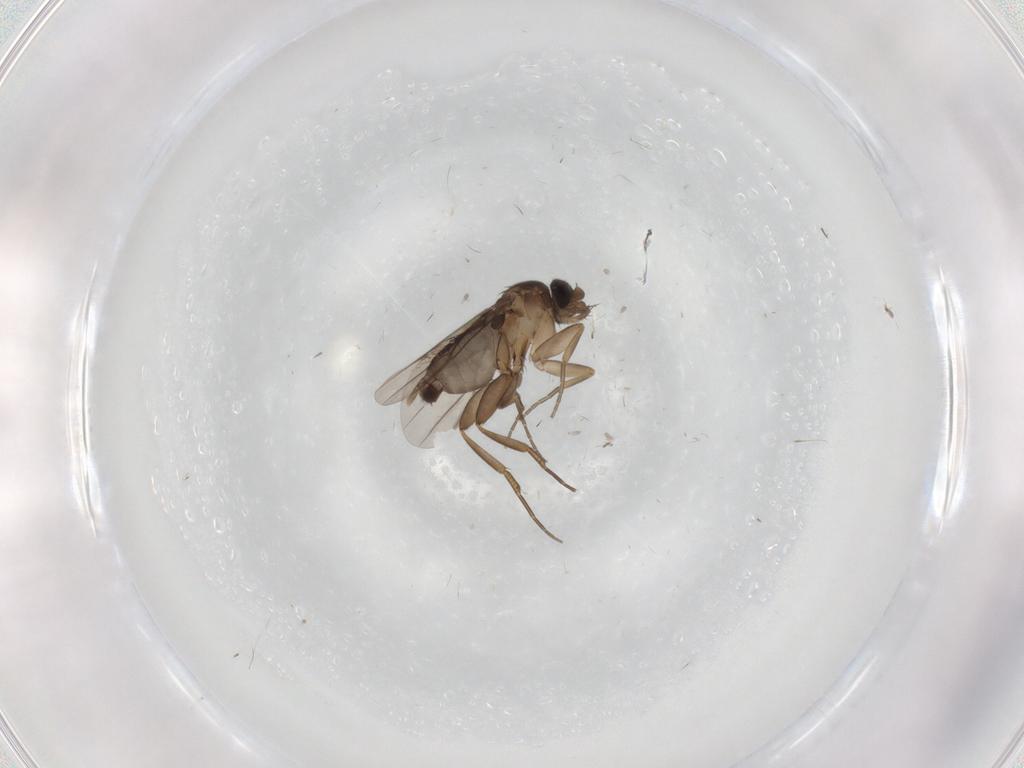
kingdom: Animalia
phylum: Arthropoda
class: Insecta
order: Diptera
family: Phoridae
